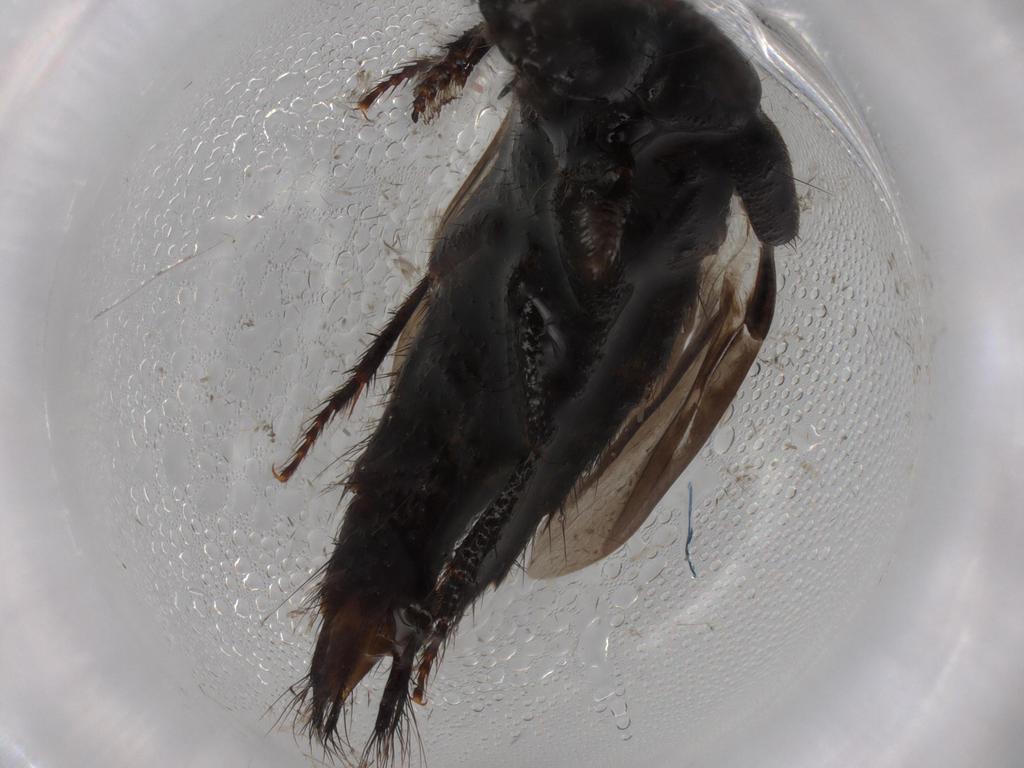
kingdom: Animalia
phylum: Arthropoda
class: Insecta
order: Coleoptera
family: Staphylinidae
